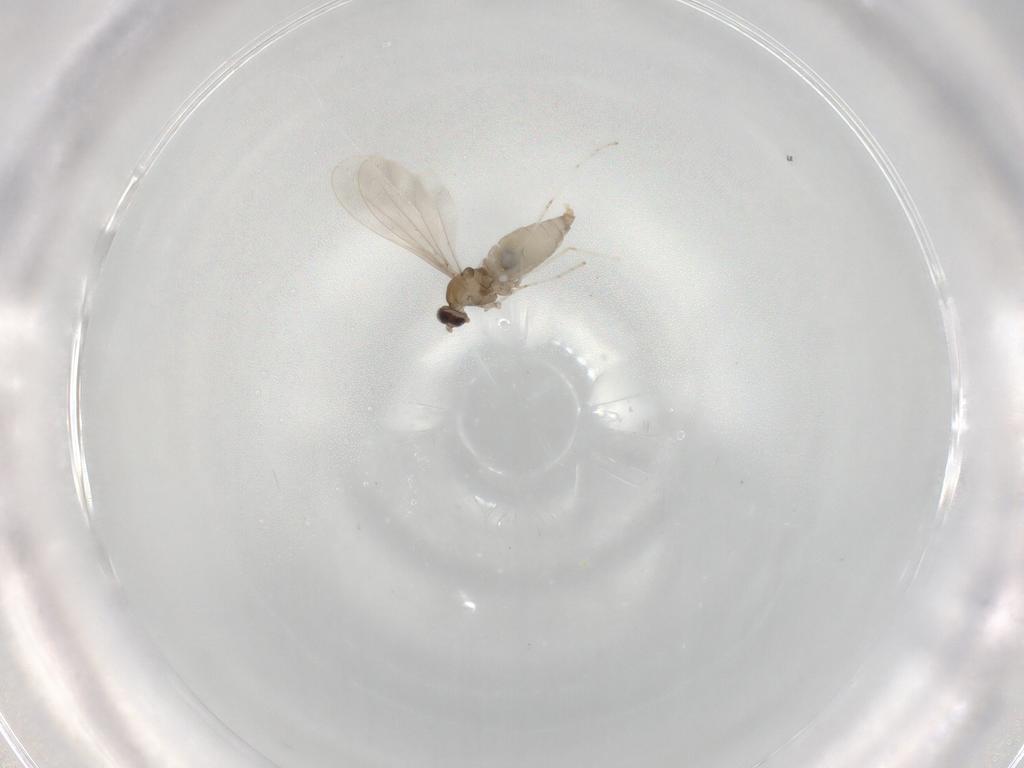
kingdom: Animalia
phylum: Arthropoda
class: Insecta
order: Diptera
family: Cecidomyiidae
